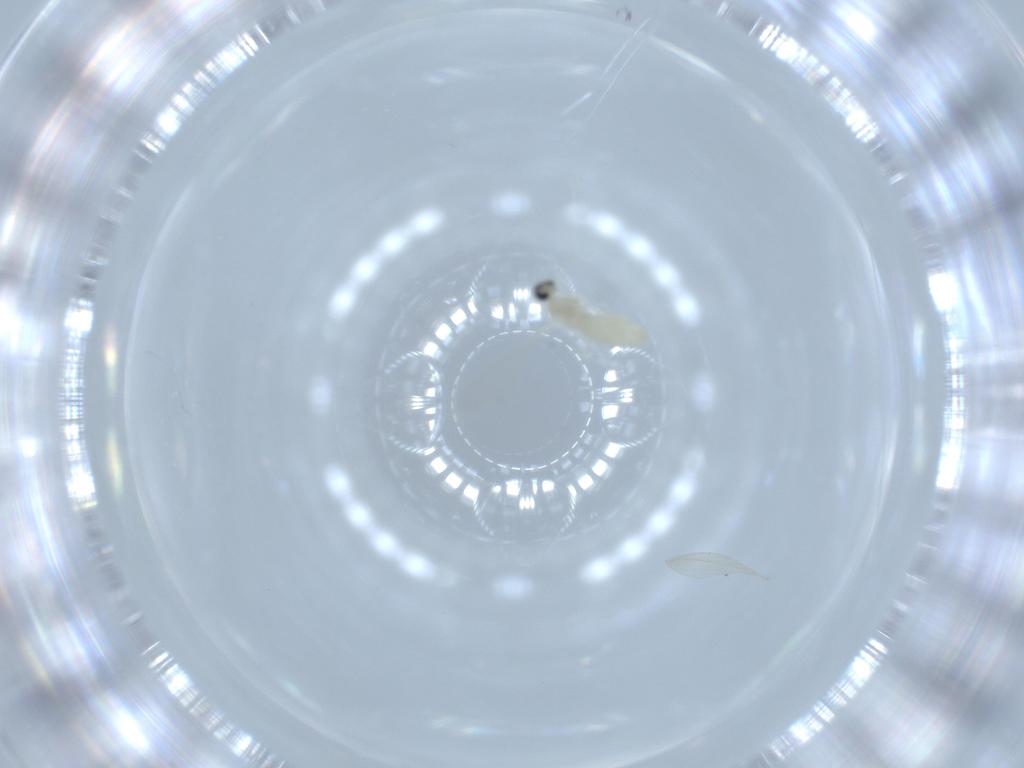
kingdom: Animalia
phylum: Arthropoda
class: Insecta
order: Diptera
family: Cecidomyiidae
